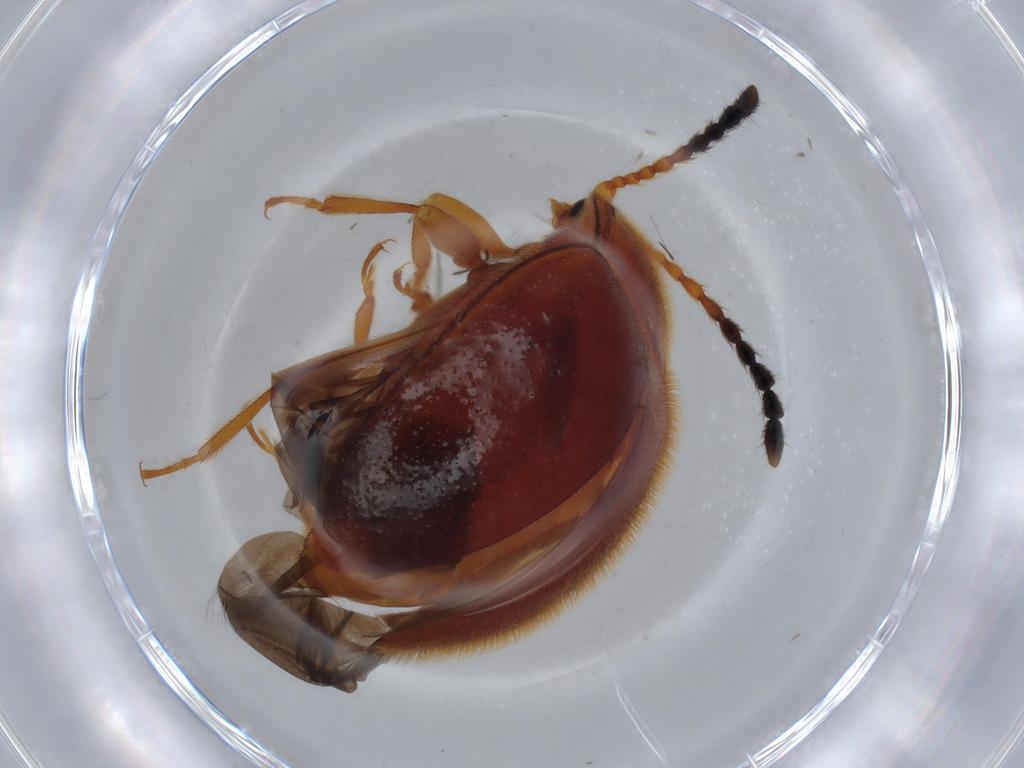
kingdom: Animalia
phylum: Arthropoda
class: Insecta
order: Coleoptera
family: Endomychidae
